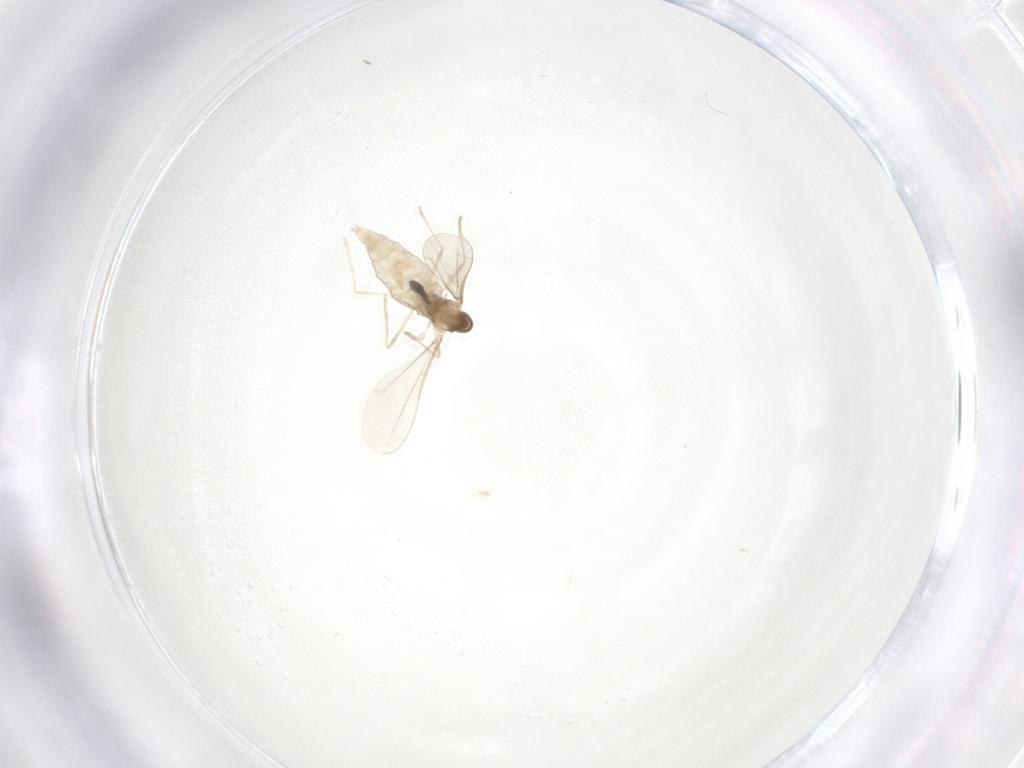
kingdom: Animalia
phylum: Arthropoda
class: Insecta
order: Diptera
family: Cecidomyiidae
